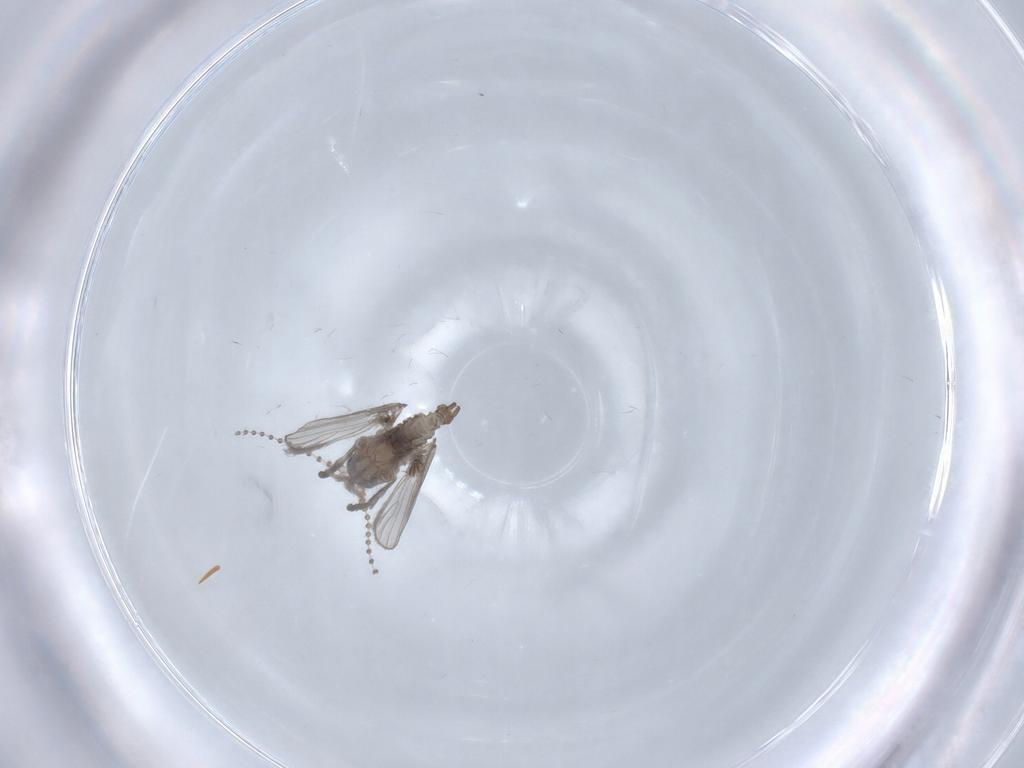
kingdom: Animalia
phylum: Arthropoda
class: Insecta
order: Diptera
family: Psychodidae
